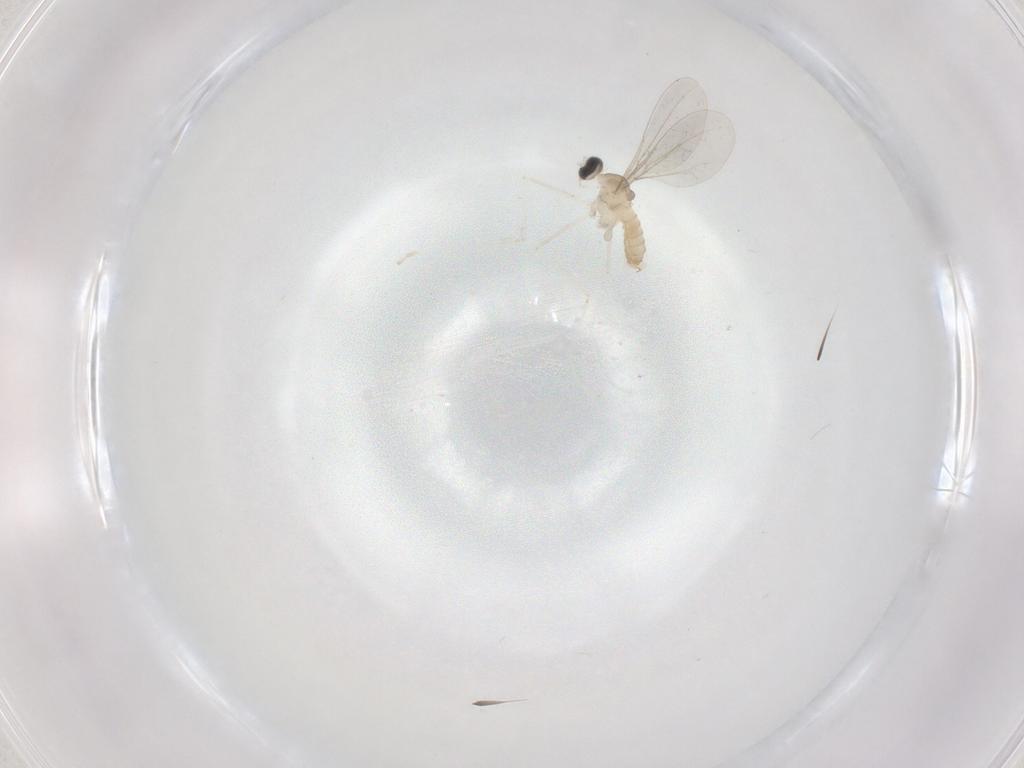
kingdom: Animalia
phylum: Arthropoda
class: Insecta
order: Diptera
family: Cecidomyiidae
